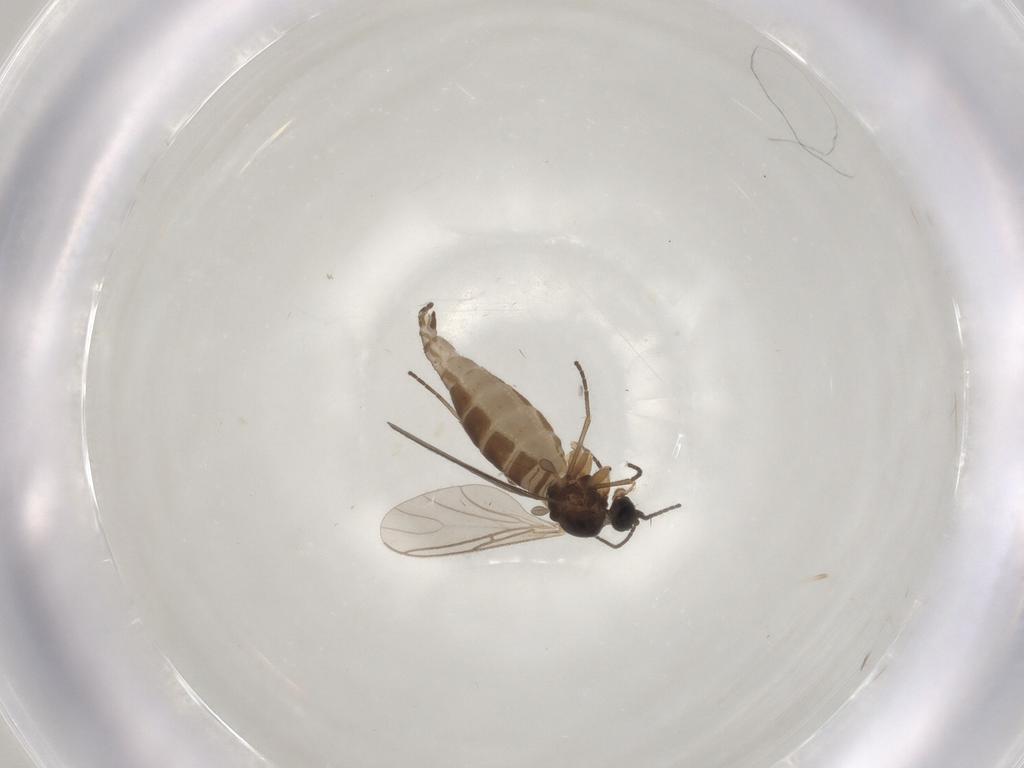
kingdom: Animalia
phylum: Arthropoda
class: Insecta
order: Diptera
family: Sciaridae
